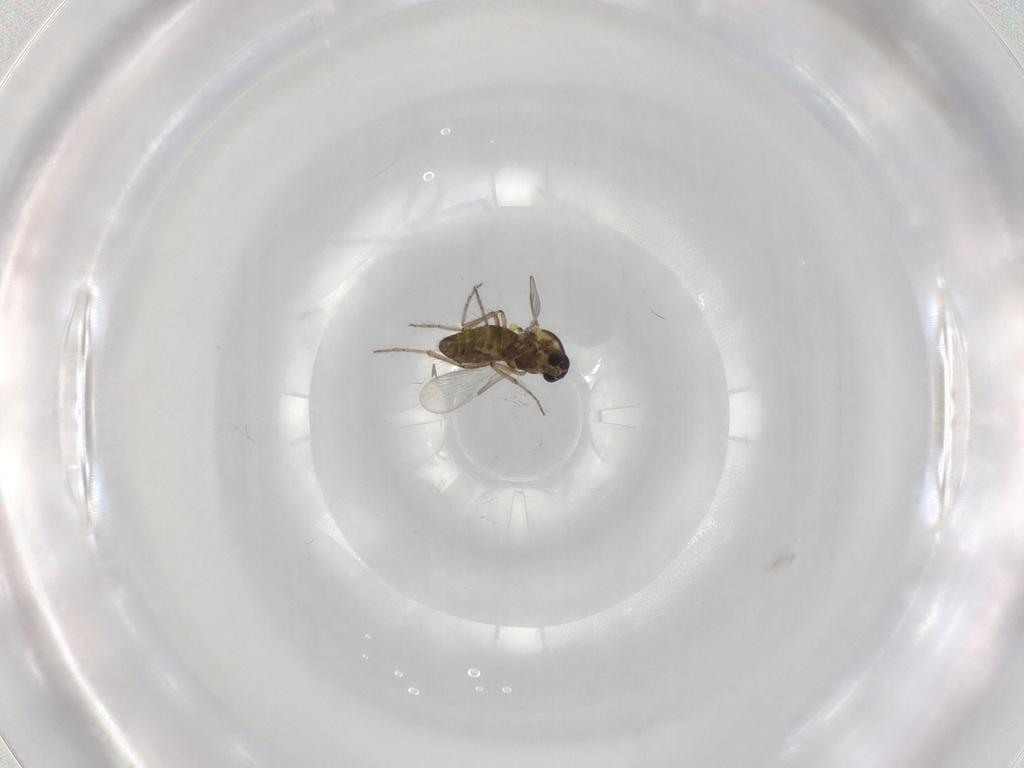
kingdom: Animalia
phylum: Arthropoda
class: Insecta
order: Diptera
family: Ceratopogonidae
